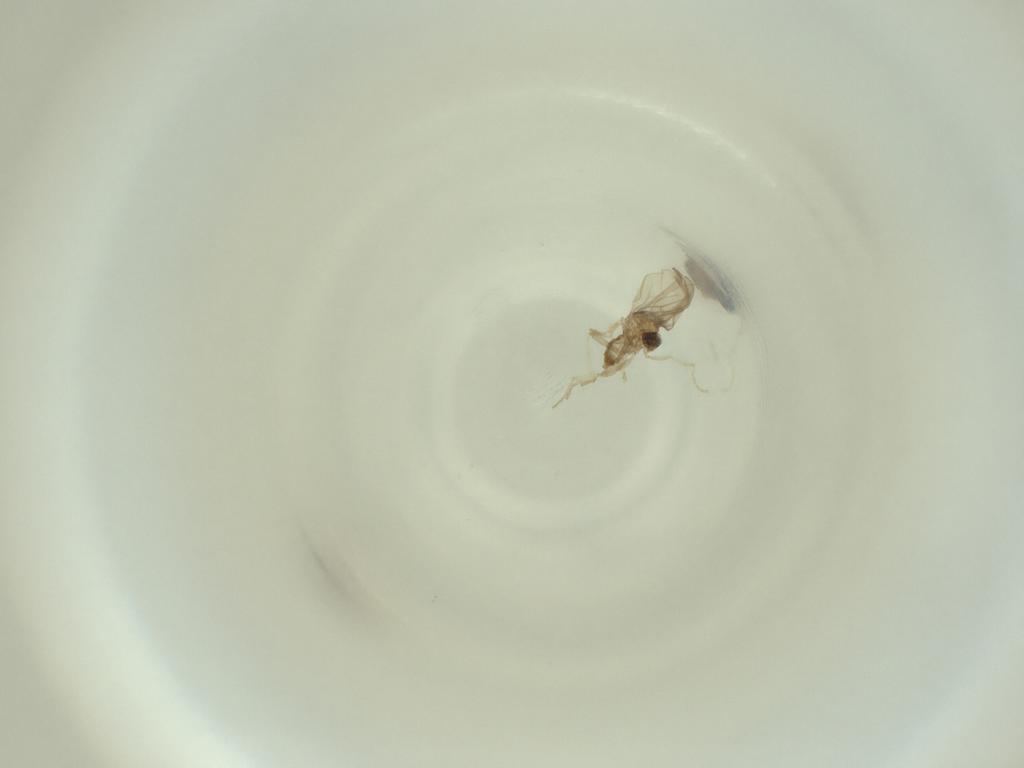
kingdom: Animalia
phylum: Arthropoda
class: Insecta
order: Diptera
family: Cecidomyiidae
